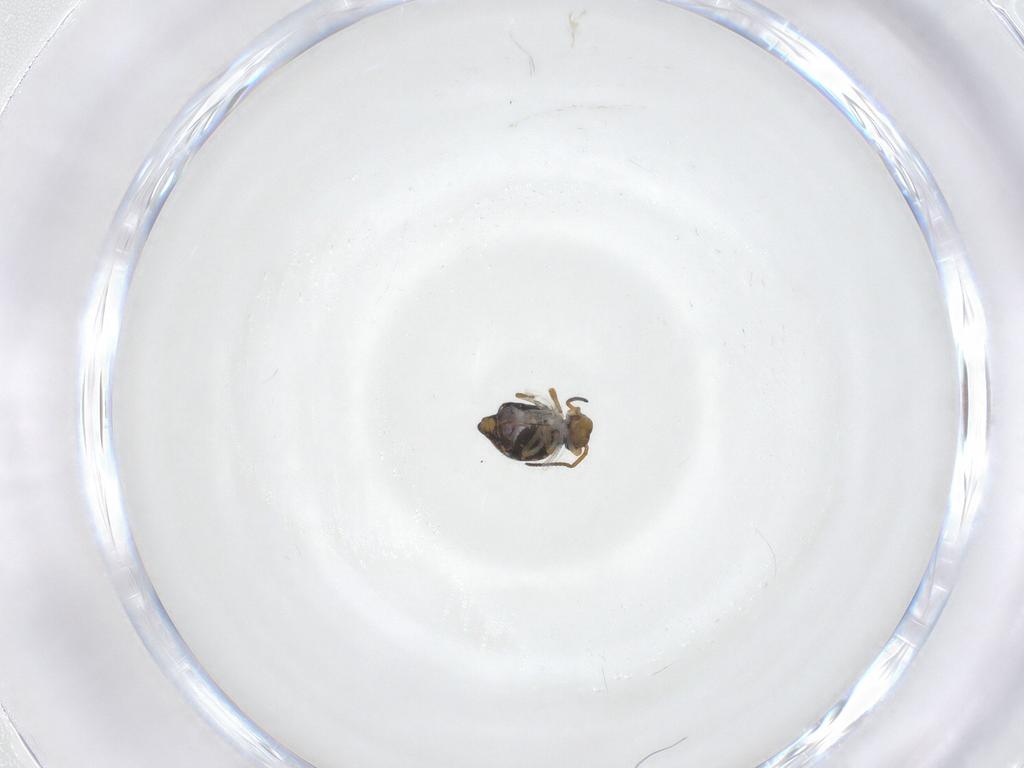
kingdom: Animalia
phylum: Arthropoda
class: Collembola
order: Symphypleona
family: Katiannidae
